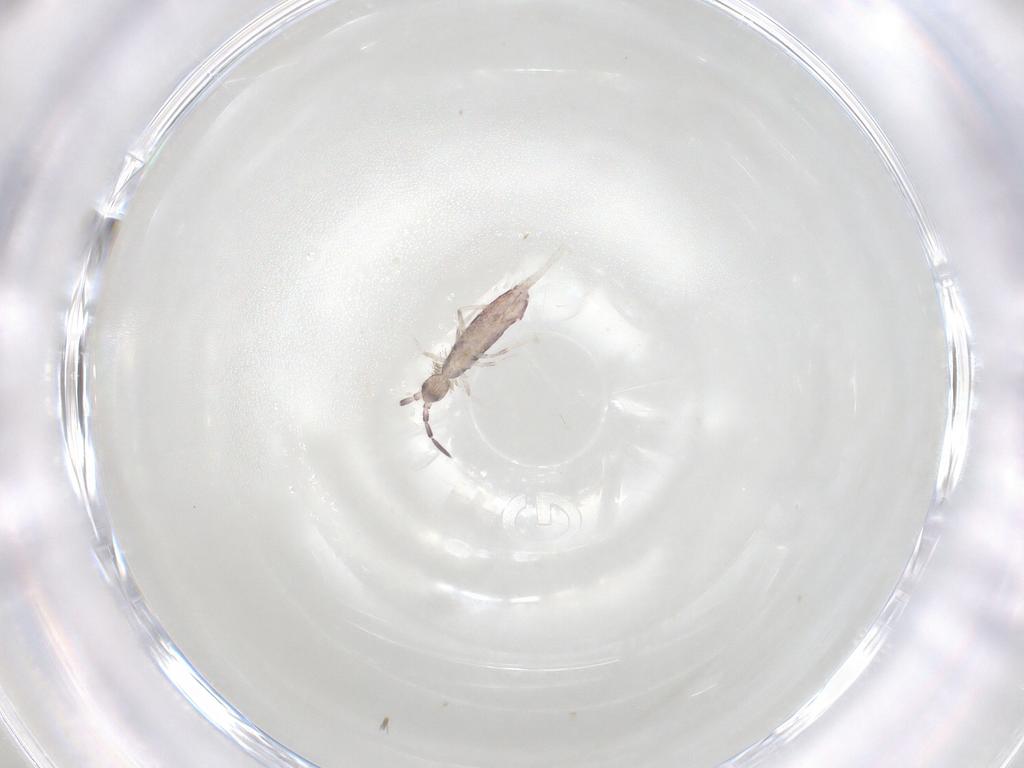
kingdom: Animalia
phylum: Arthropoda
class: Collembola
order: Poduromorpha
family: Hypogastruridae
